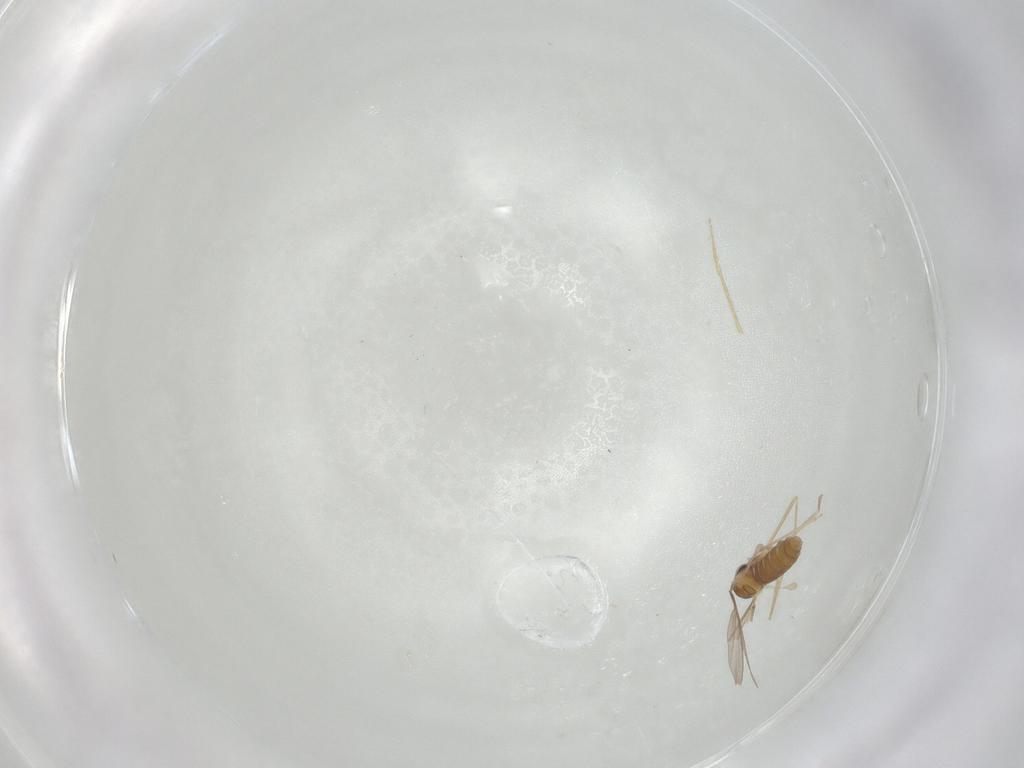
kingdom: Animalia
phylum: Arthropoda
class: Insecta
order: Diptera
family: Cecidomyiidae
